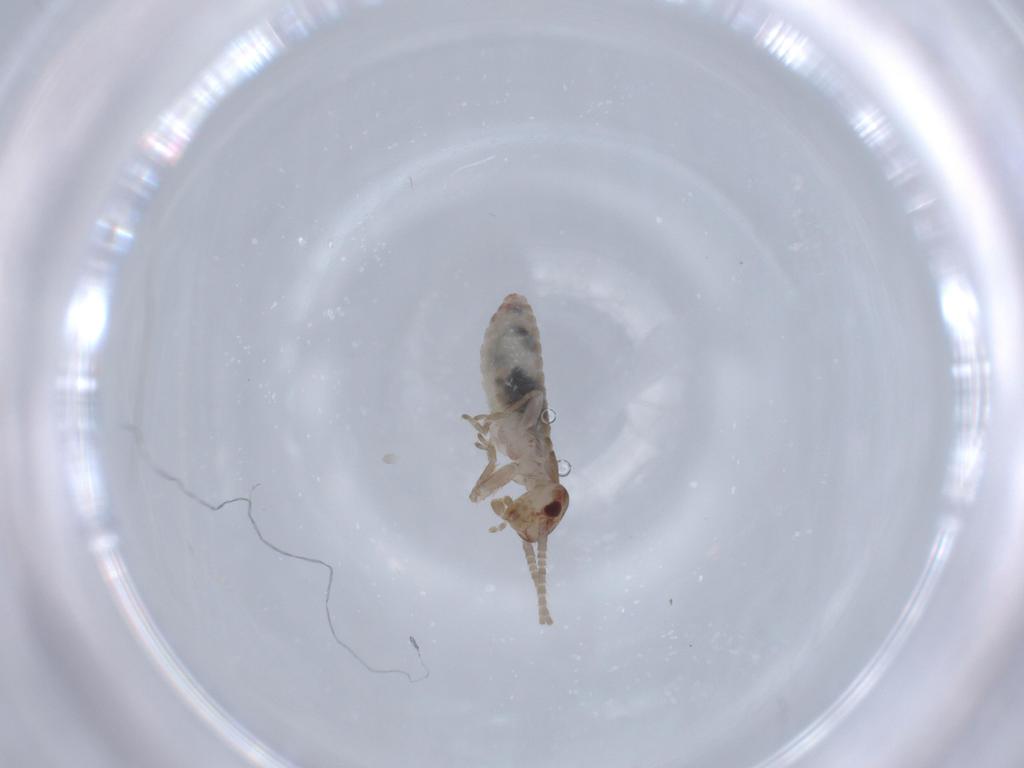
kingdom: Animalia
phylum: Arthropoda
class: Insecta
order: Orthoptera
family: Mogoplistidae
